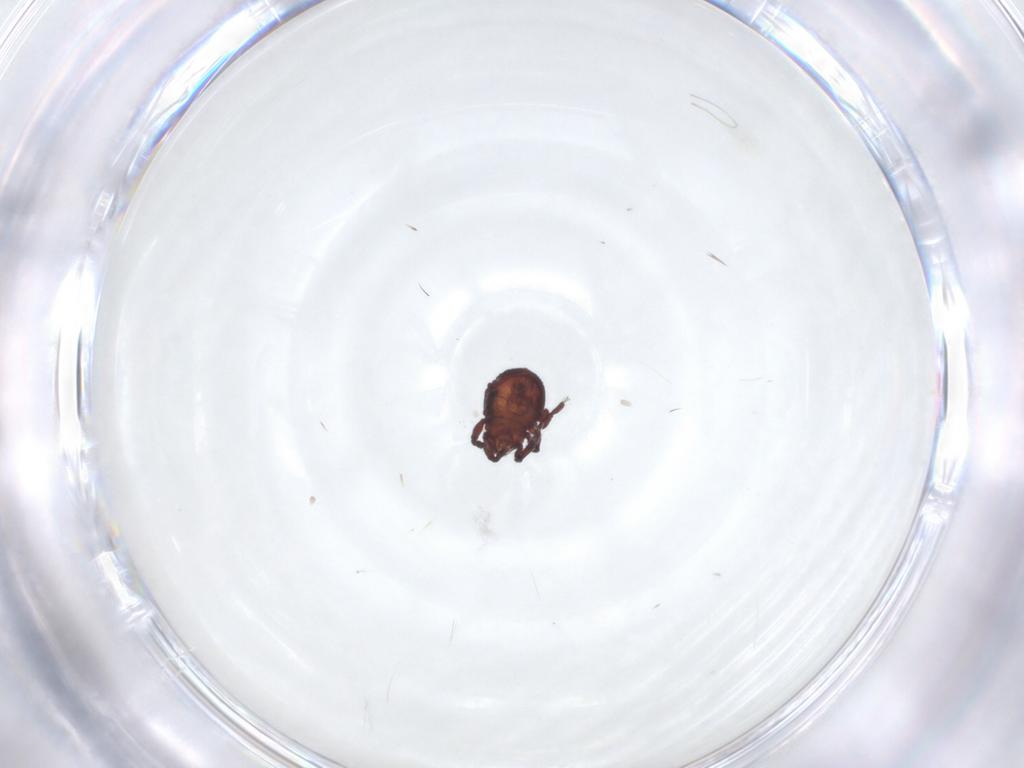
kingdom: Animalia
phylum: Arthropoda
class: Arachnida
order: Sarcoptiformes
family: Neoliodidae
